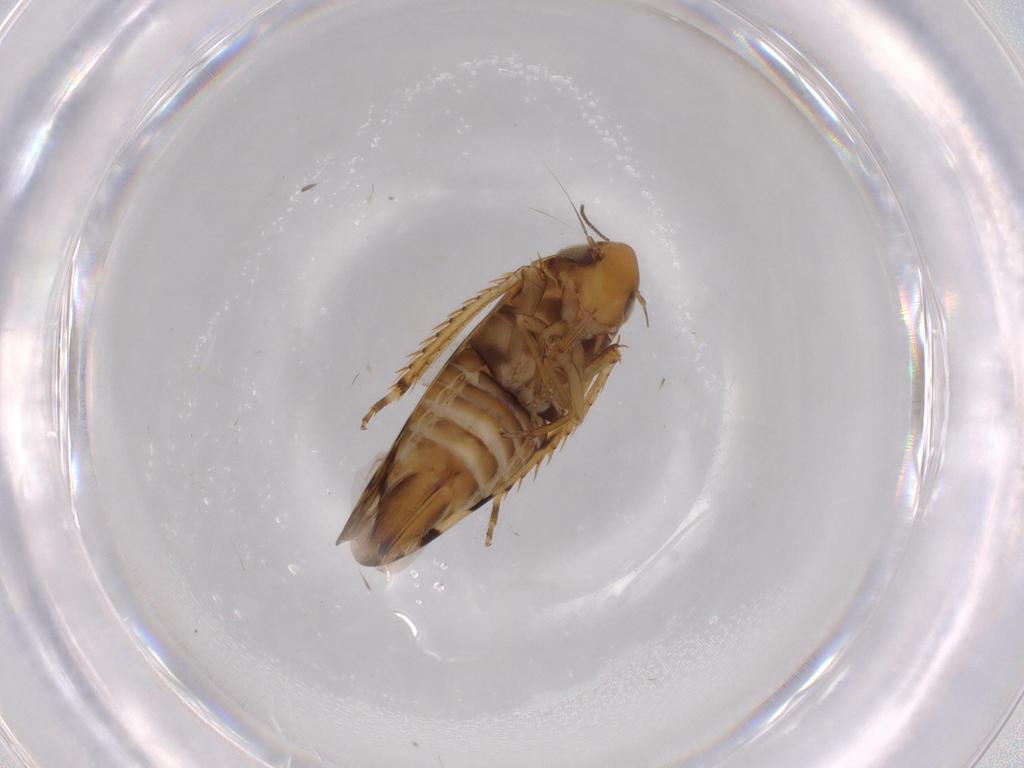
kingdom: Animalia
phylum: Arthropoda
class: Insecta
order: Hemiptera
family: Cicadellidae
